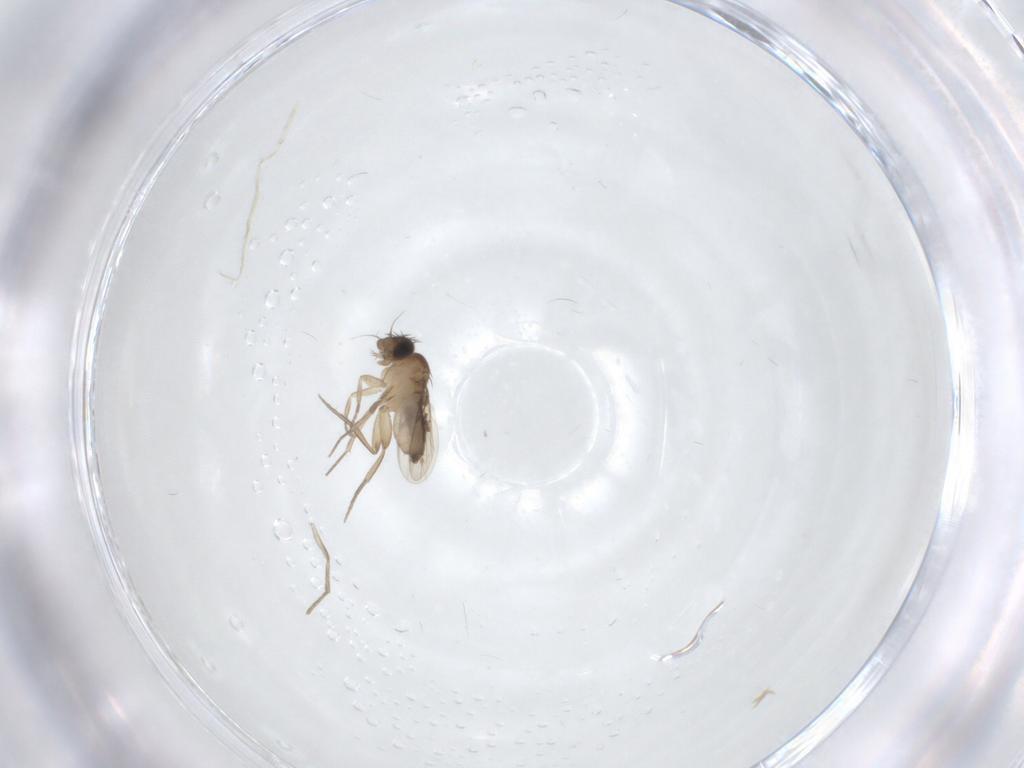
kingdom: Animalia
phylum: Arthropoda
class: Insecta
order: Diptera
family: Phoridae
